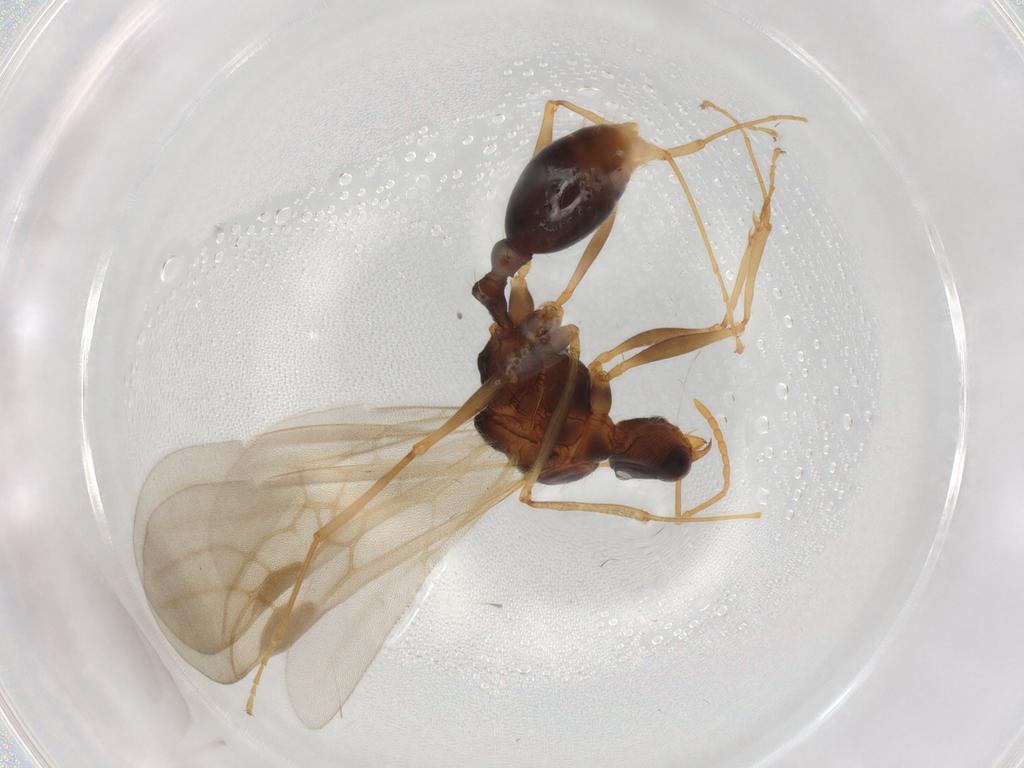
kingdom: Animalia
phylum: Arthropoda
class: Insecta
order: Hymenoptera
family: Formicidae
